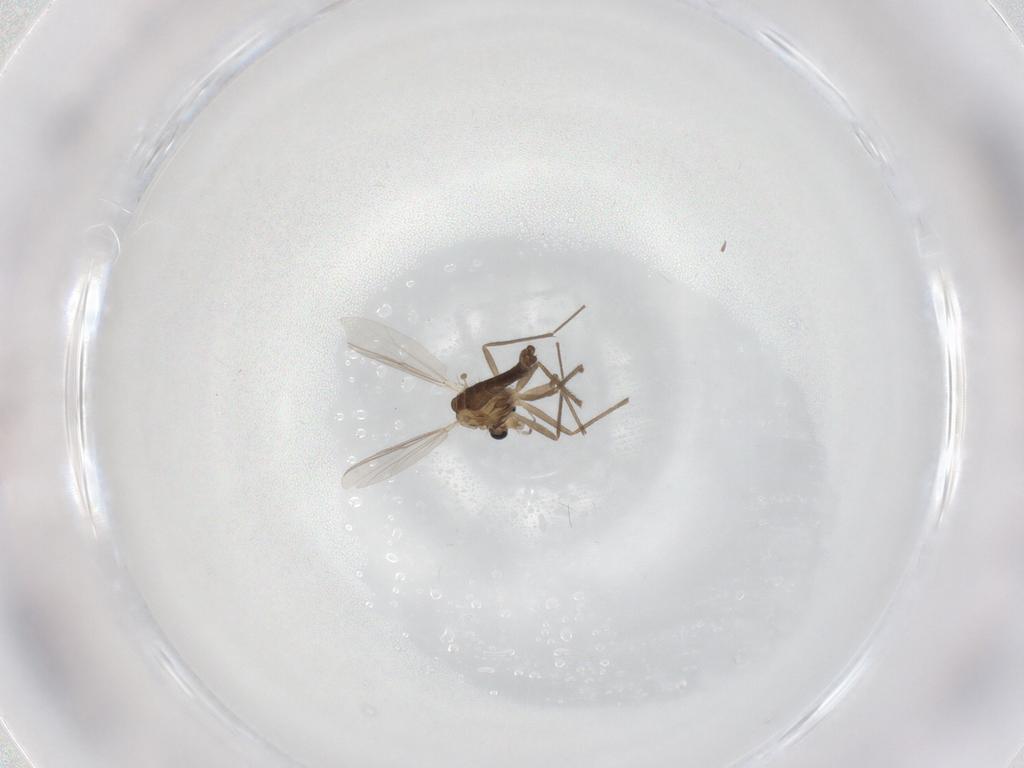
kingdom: Animalia
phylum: Arthropoda
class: Insecta
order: Diptera
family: Chironomidae
